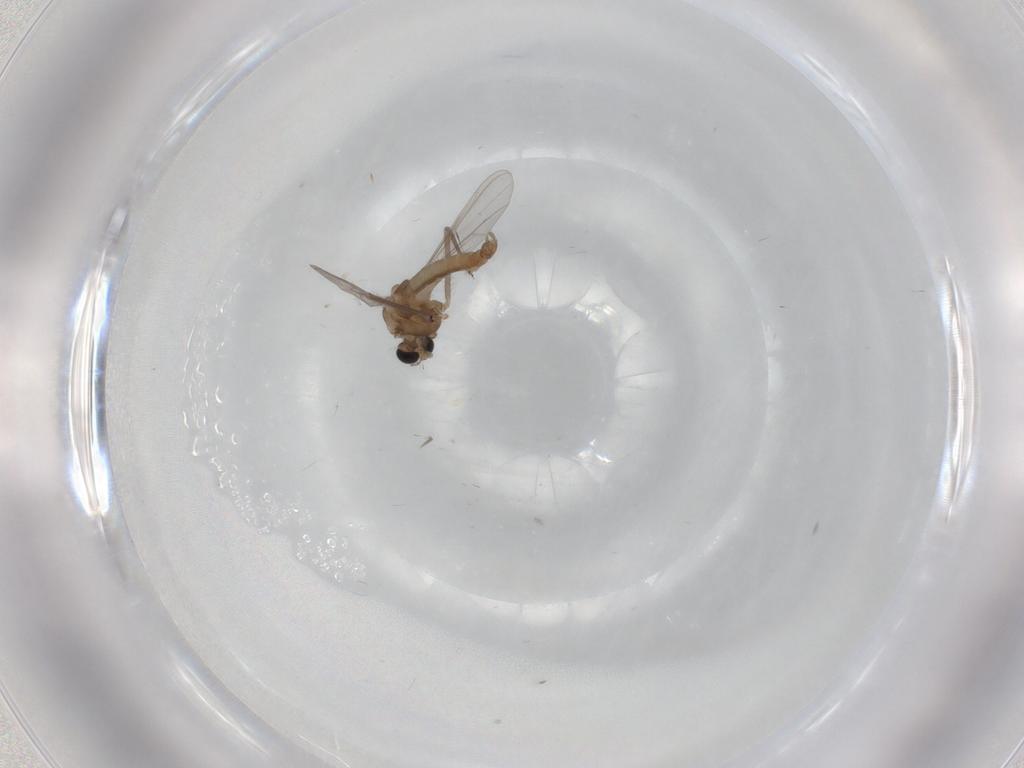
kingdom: Animalia
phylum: Arthropoda
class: Insecta
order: Diptera
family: Chironomidae
